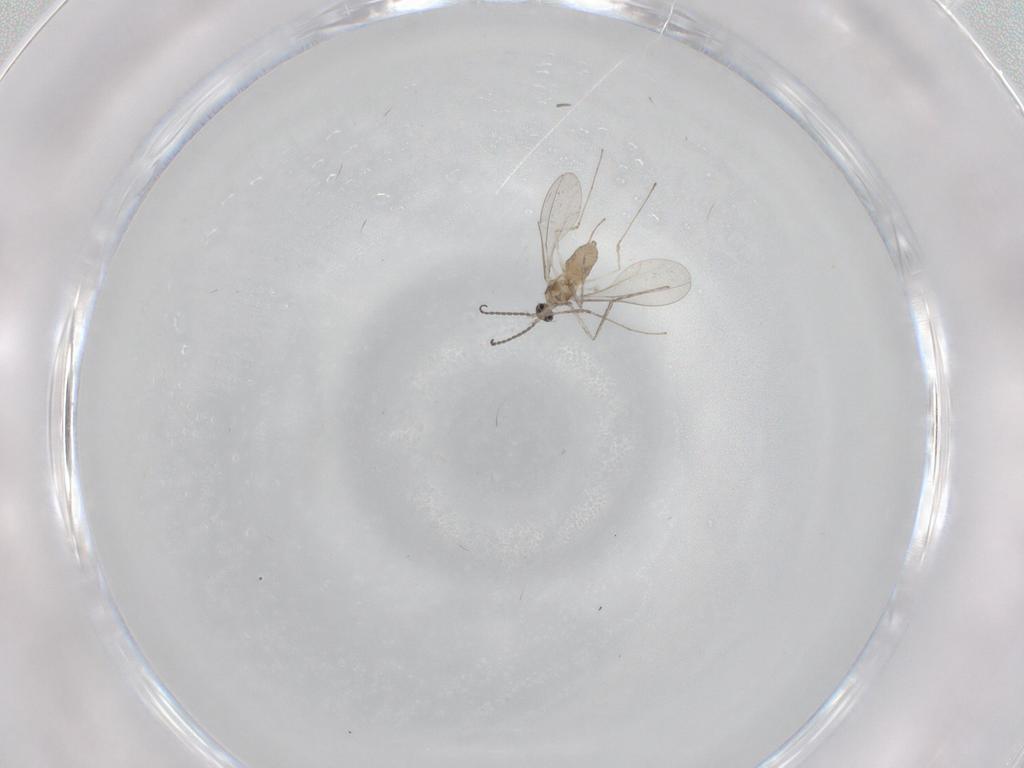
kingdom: Animalia
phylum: Arthropoda
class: Insecta
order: Diptera
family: Cecidomyiidae
